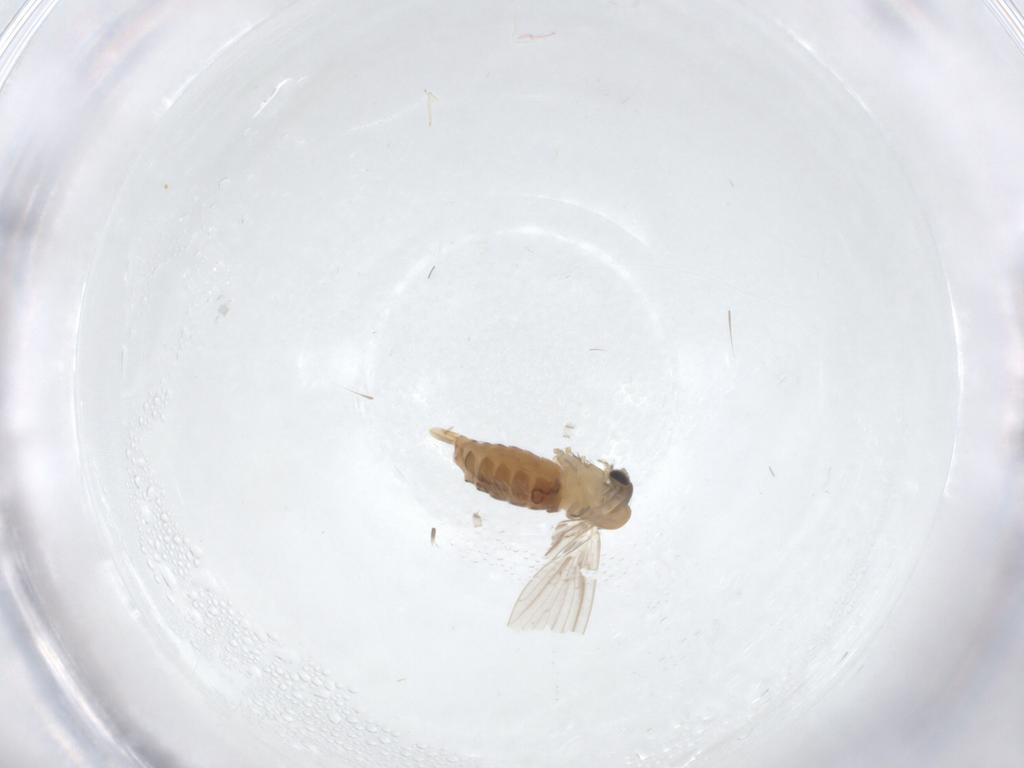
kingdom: Animalia
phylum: Arthropoda
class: Insecta
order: Diptera
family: Psychodidae
